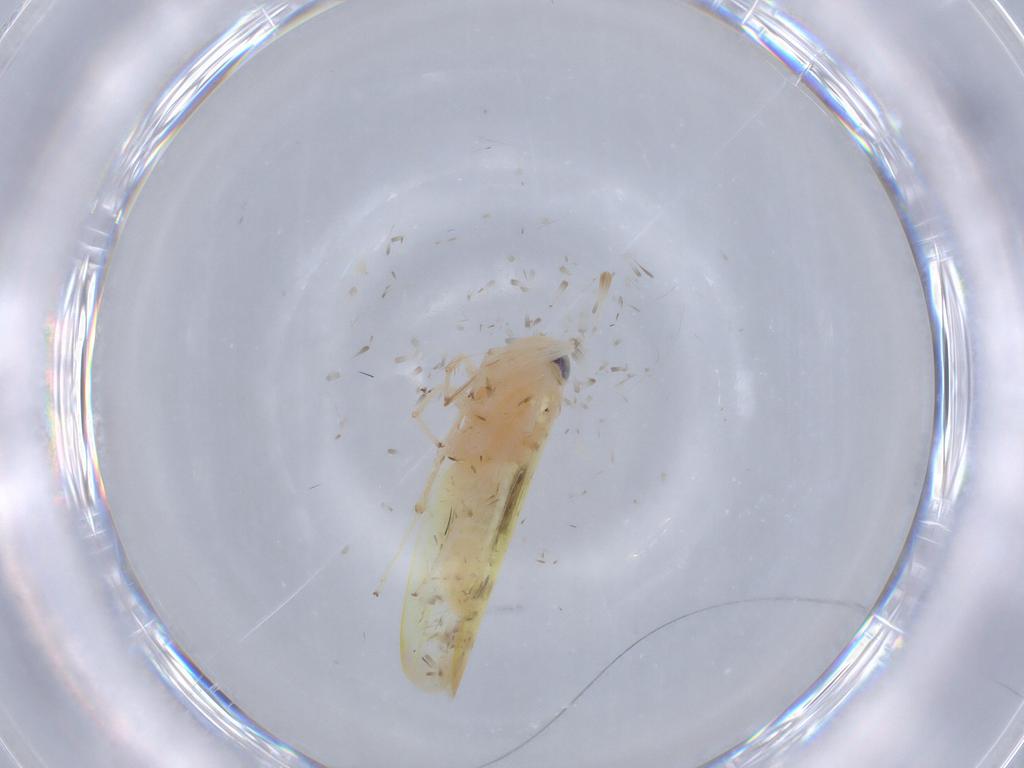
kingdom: Animalia
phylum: Arthropoda
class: Insecta
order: Hemiptera
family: Cicadellidae
